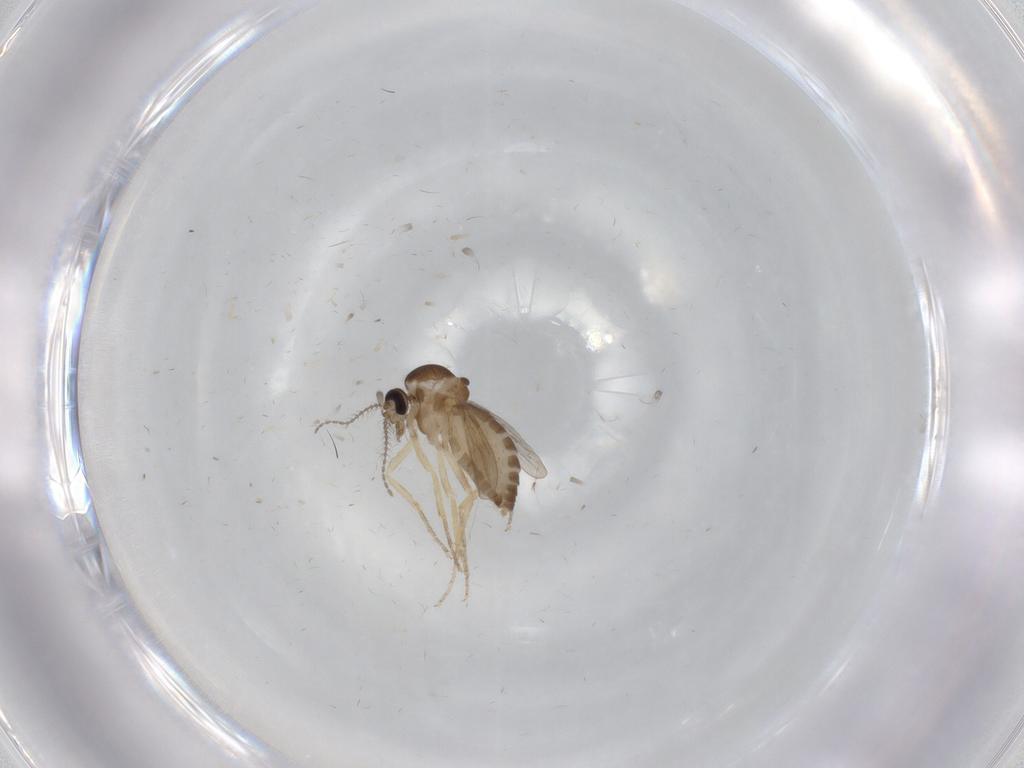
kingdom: Animalia
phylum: Arthropoda
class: Insecta
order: Diptera
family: Ceratopogonidae
